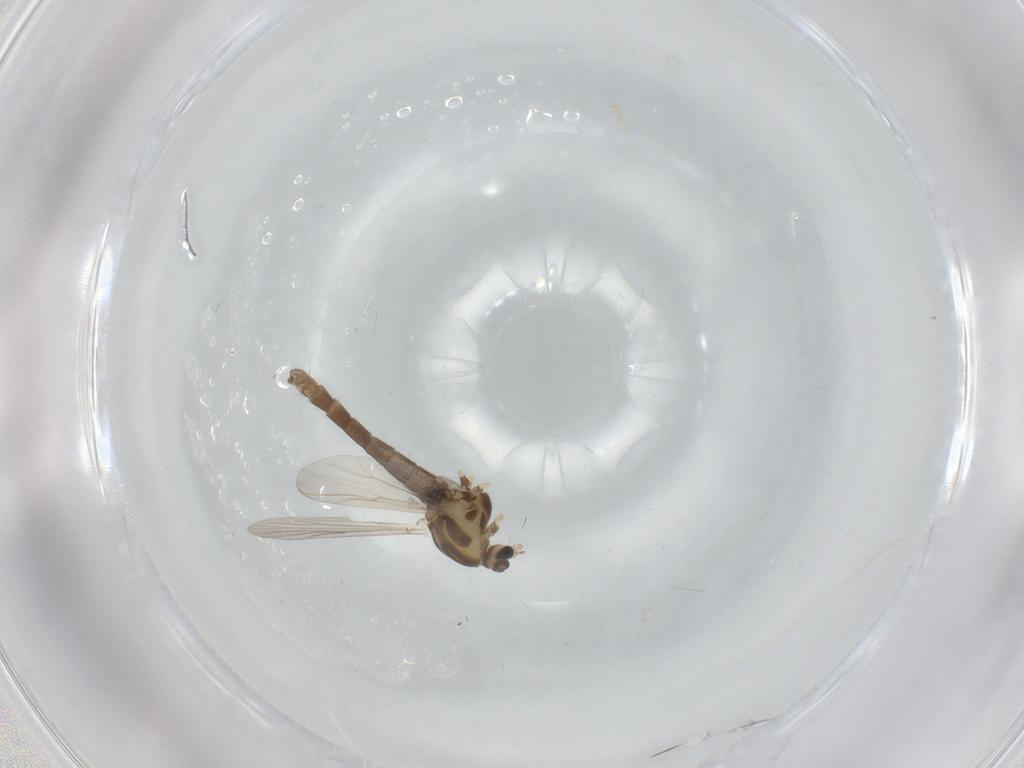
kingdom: Animalia
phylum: Arthropoda
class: Insecta
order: Diptera
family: Chironomidae
